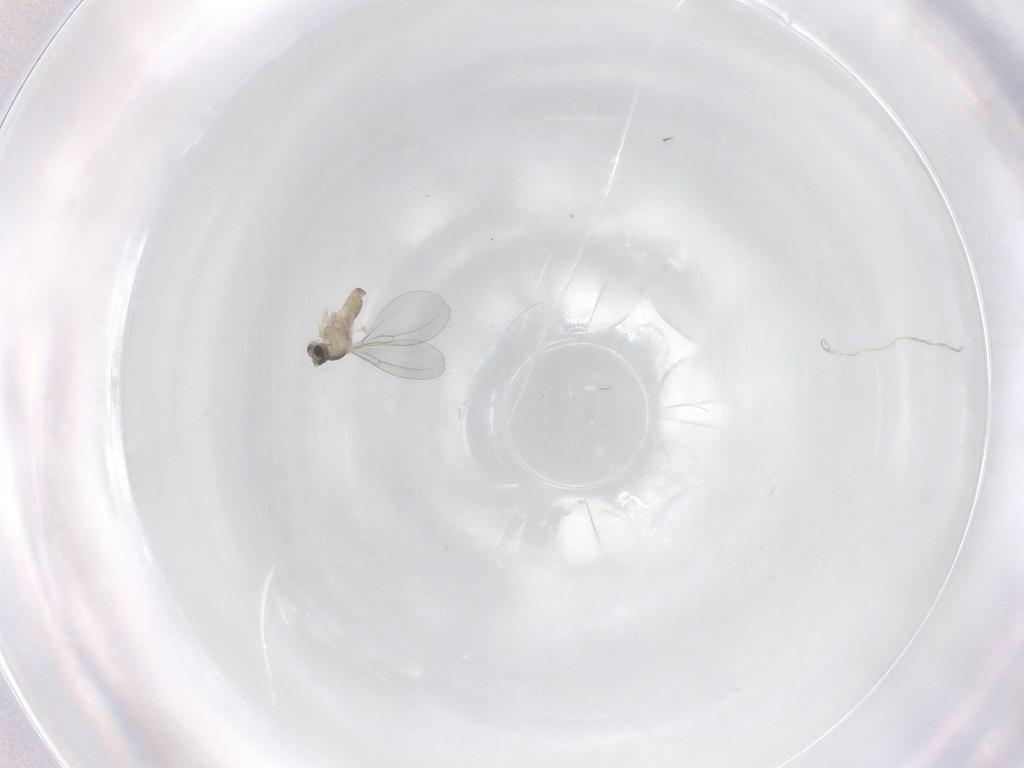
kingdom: Animalia
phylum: Arthropoda
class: Insecta
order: Diptera
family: Cecidomyiidae
